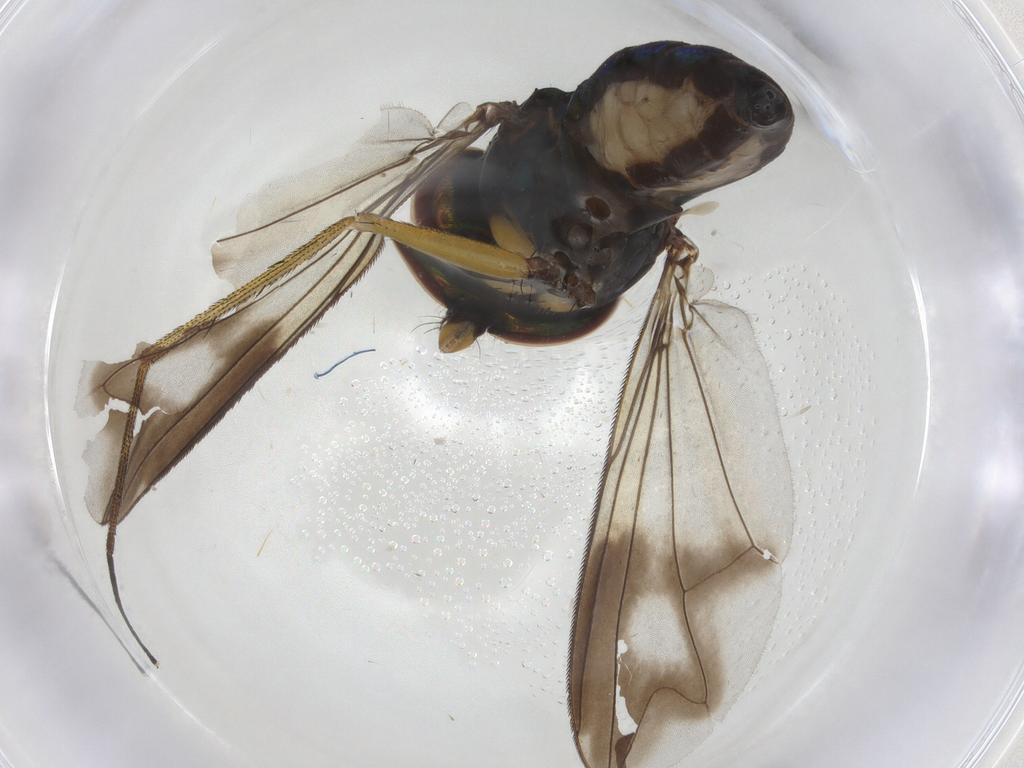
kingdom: Animalia
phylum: Arthropoda
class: Insecta
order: Diptera
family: Dolichopodidae
